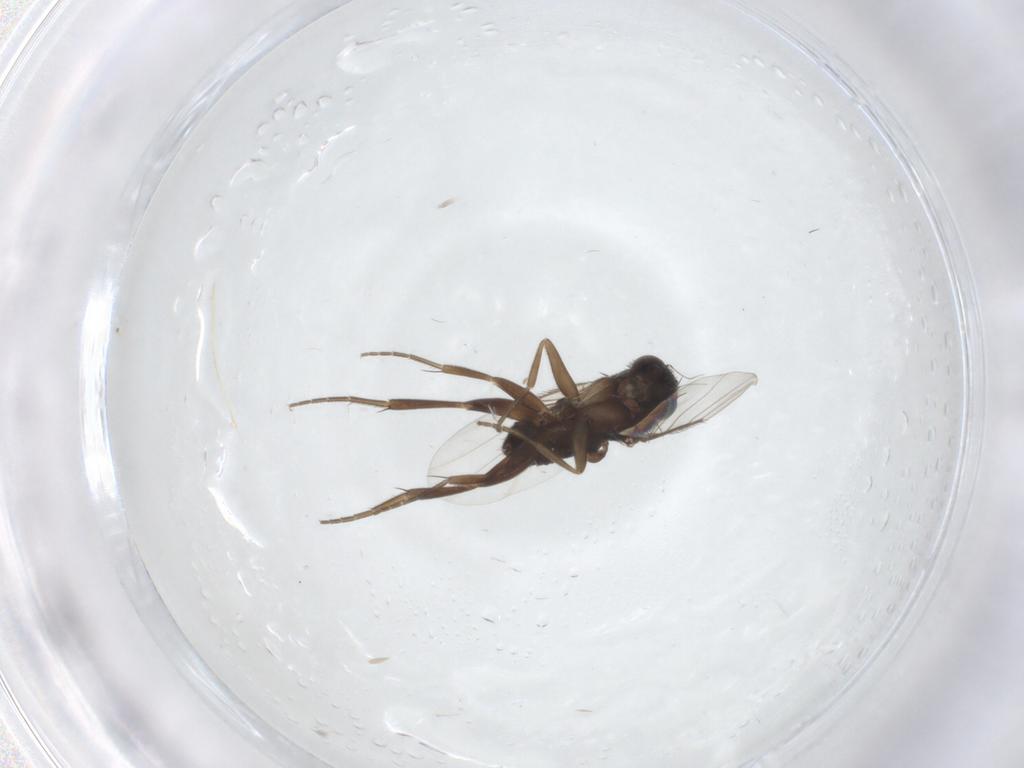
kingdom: Animalia
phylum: Arthropoda
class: Insecta
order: Diptera
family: Phoridae
